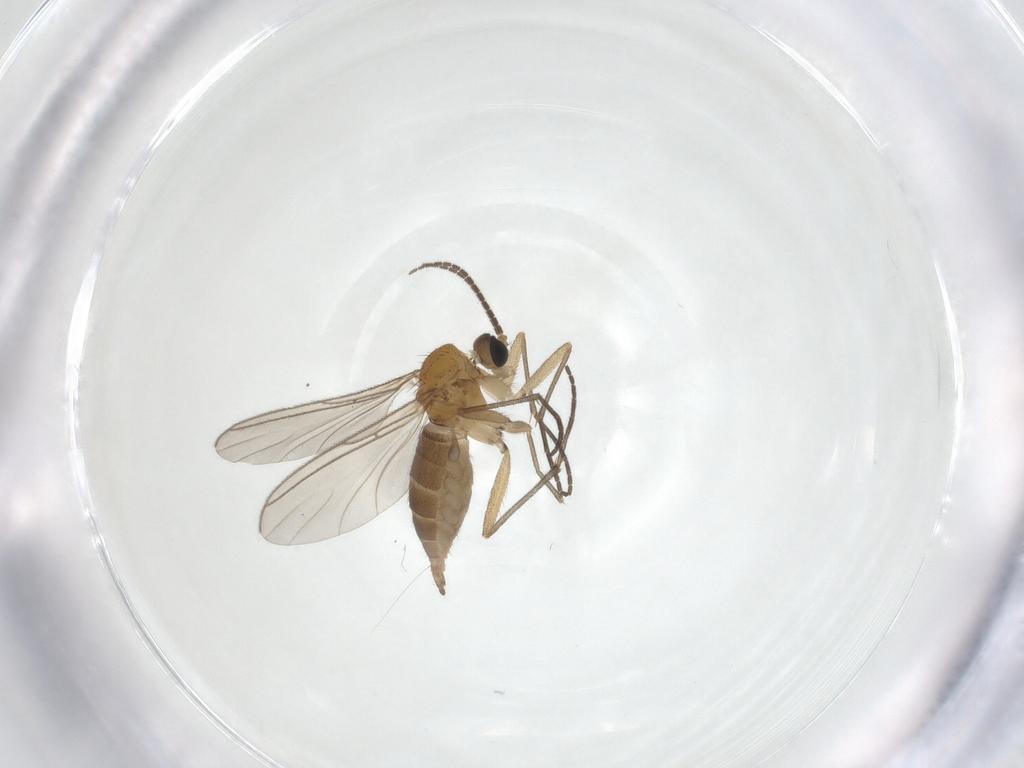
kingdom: Animalia
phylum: Arthropoda
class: Insecta
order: Diptera
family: Sciaridae
